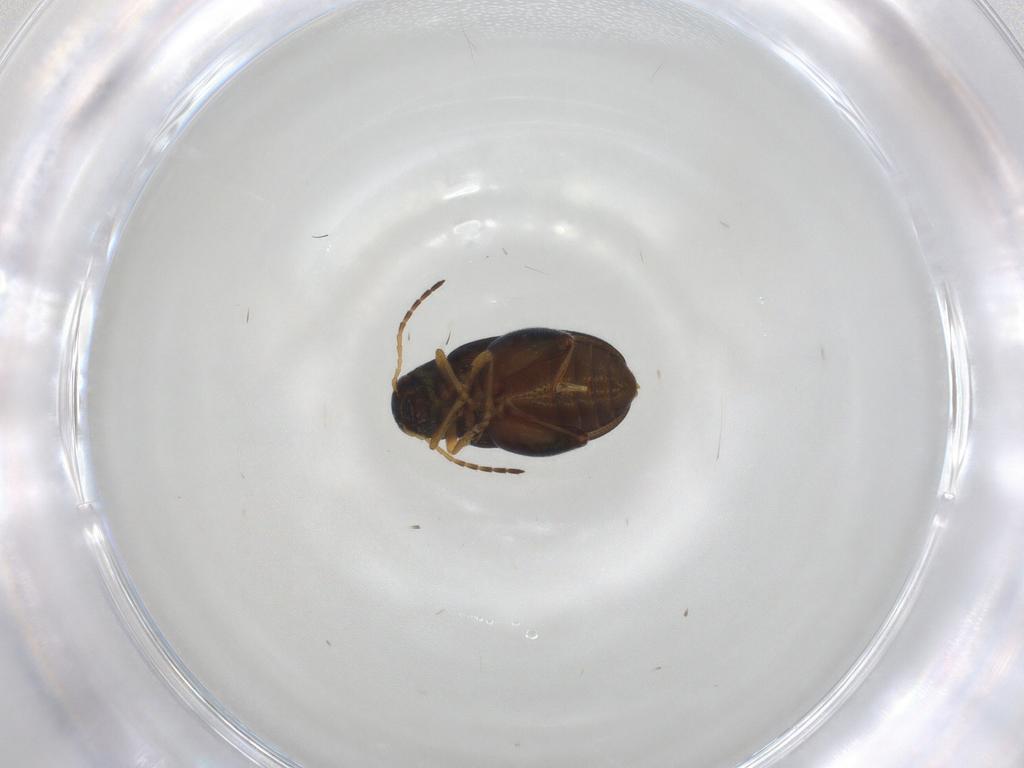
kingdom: Animalia
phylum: Arthropoda
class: Insecta
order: Coleoptera
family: Chrysomelidae
